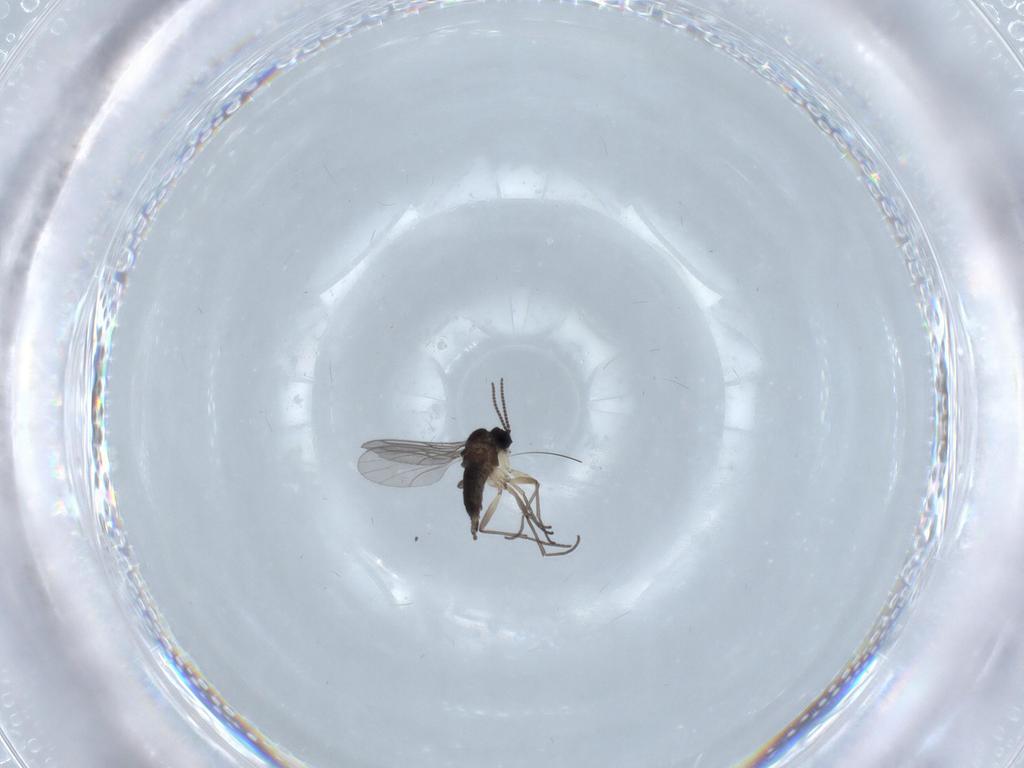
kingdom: Animalia
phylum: Arthropoda
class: Insecta
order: Diptera
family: Sciaridae
